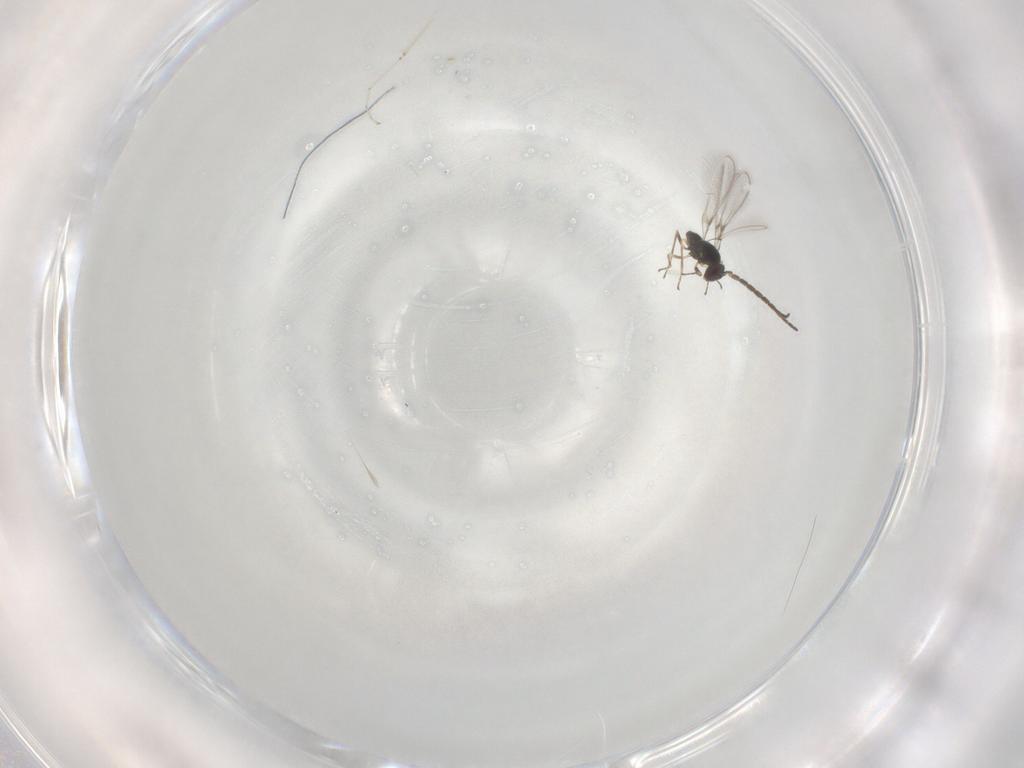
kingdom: Animalia
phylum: Arthropoda
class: Insecta
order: Hymenoptera
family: Mymaridae
